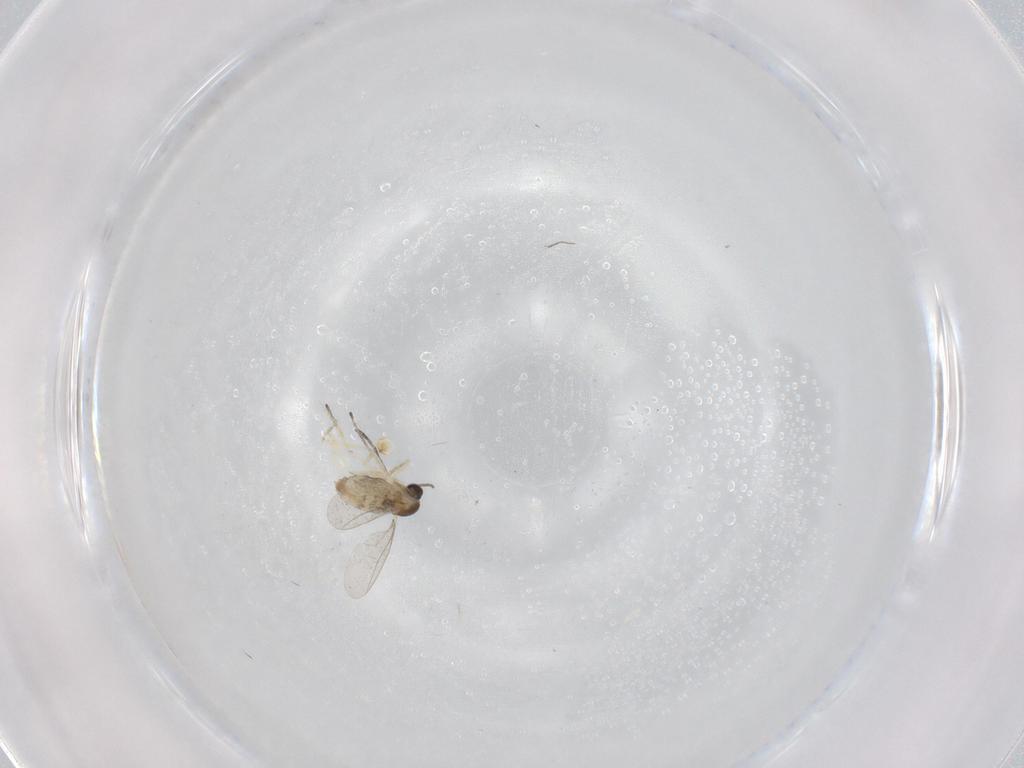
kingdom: Animalia
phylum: Arthropoda
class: Insecta
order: Diptera
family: Cecidomyiidae
